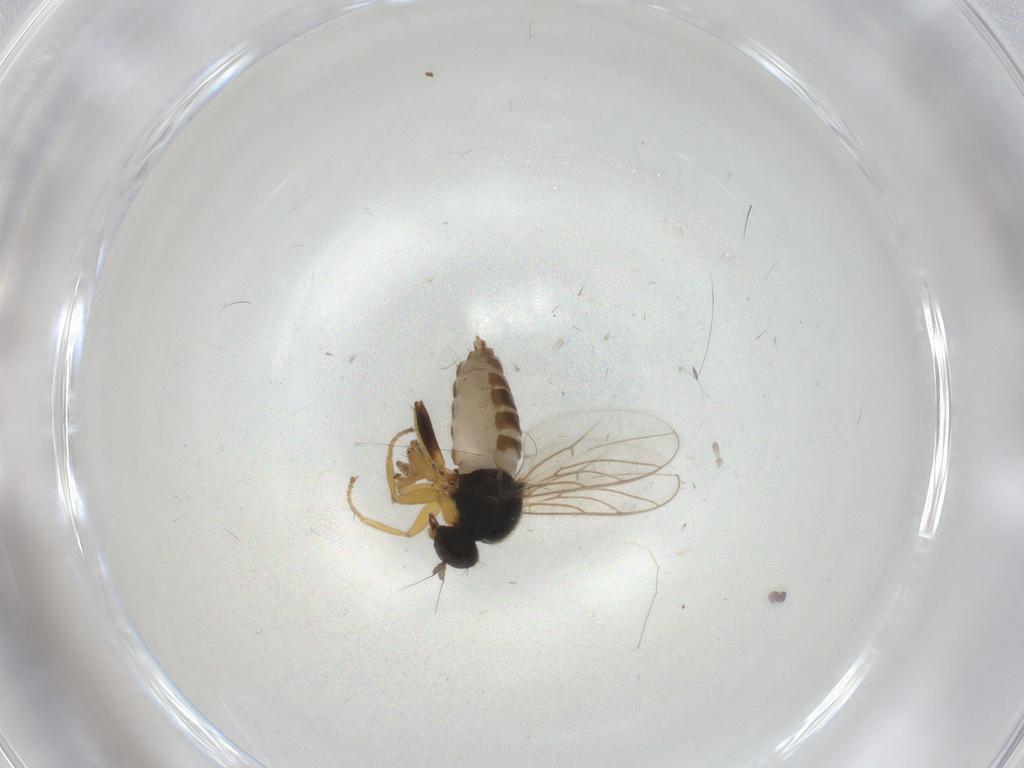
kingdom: Animalia
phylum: Arthropoda
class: Insecta
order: Diptera
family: Hybotidae
